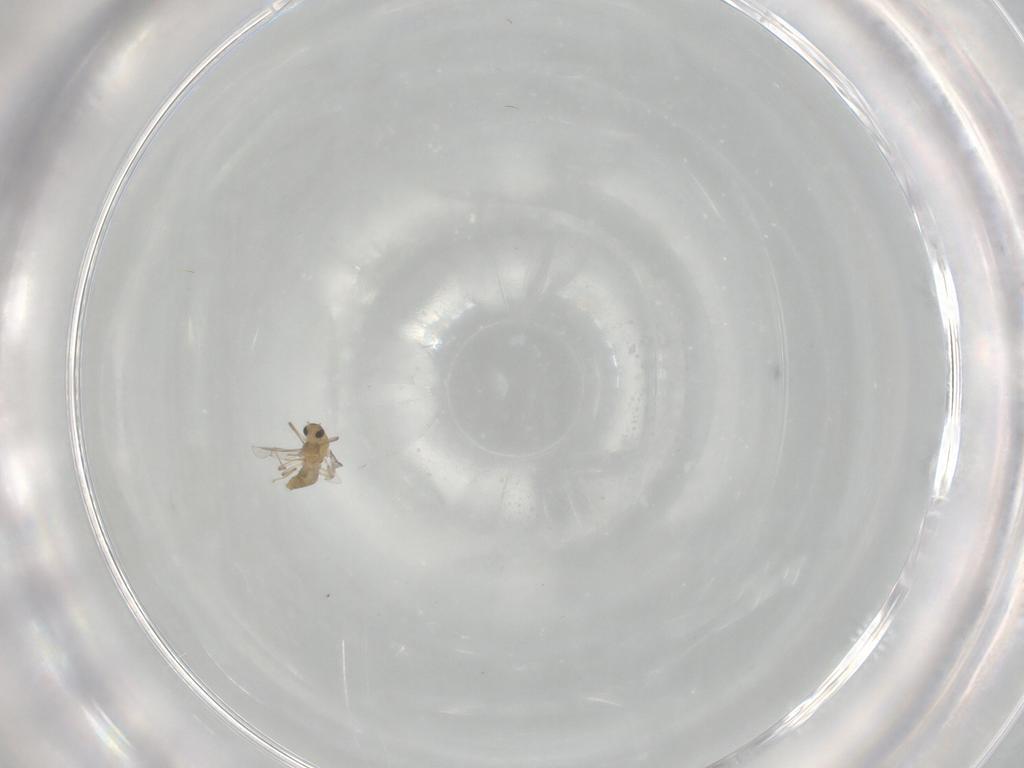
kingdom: Animalia
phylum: Arthropoda
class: Insecta
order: Diptera
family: Chironomidae
